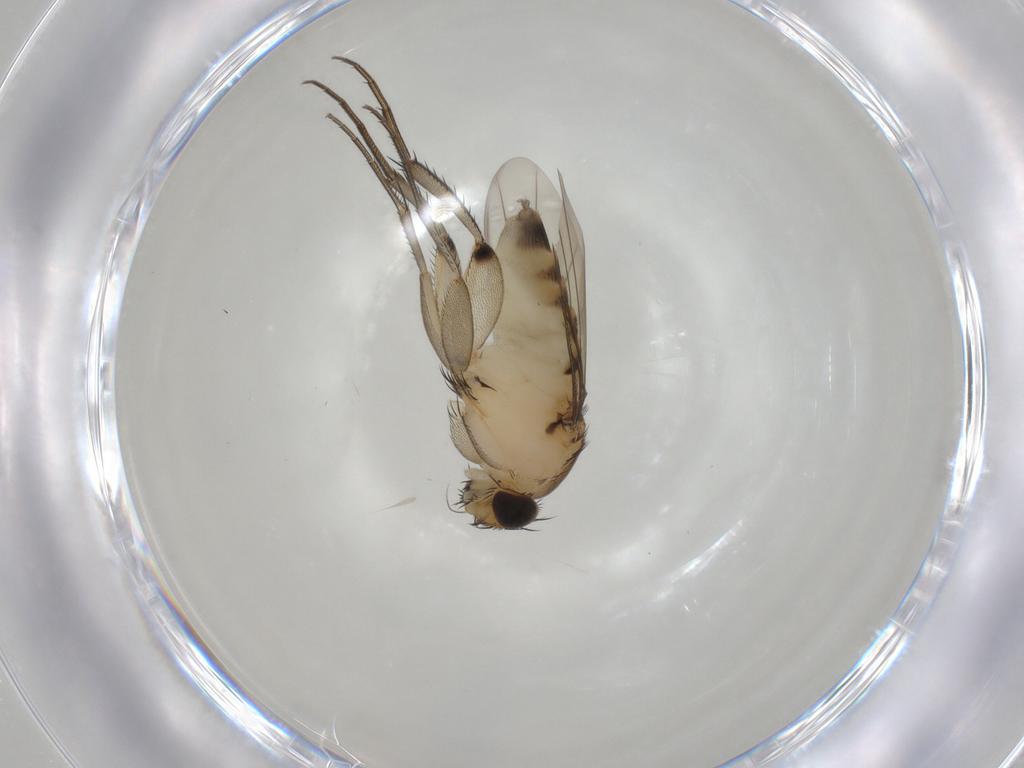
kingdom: Animalia
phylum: Arthropoda
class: Insecta
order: Diptera
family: Phoridae
